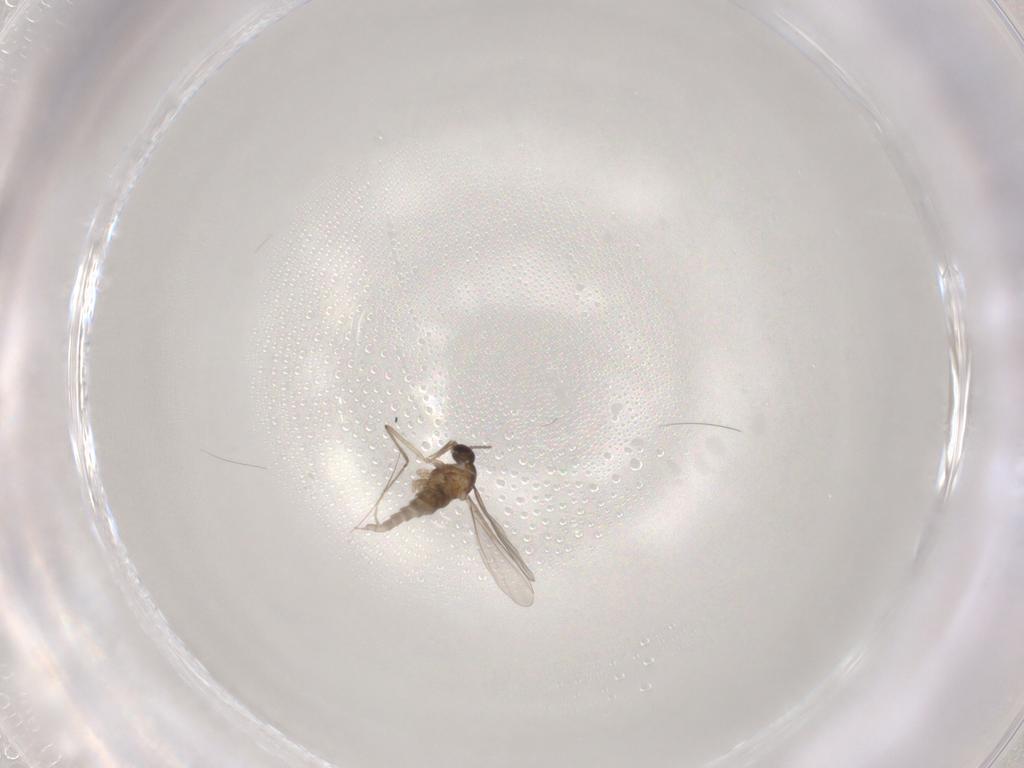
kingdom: Animalia
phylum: Arthropoda
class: Insecta
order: Diptera
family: Cecidomyiidae
